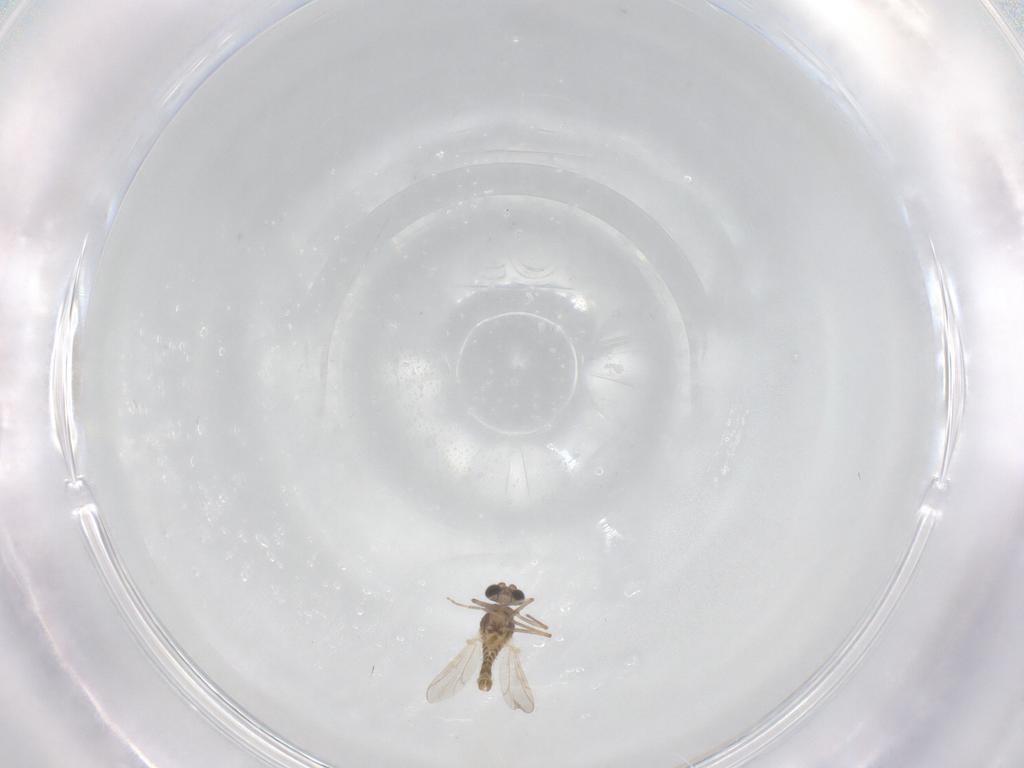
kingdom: Animalia
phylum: Arthropoda
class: Insecta
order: Diptera
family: Chironomidae
